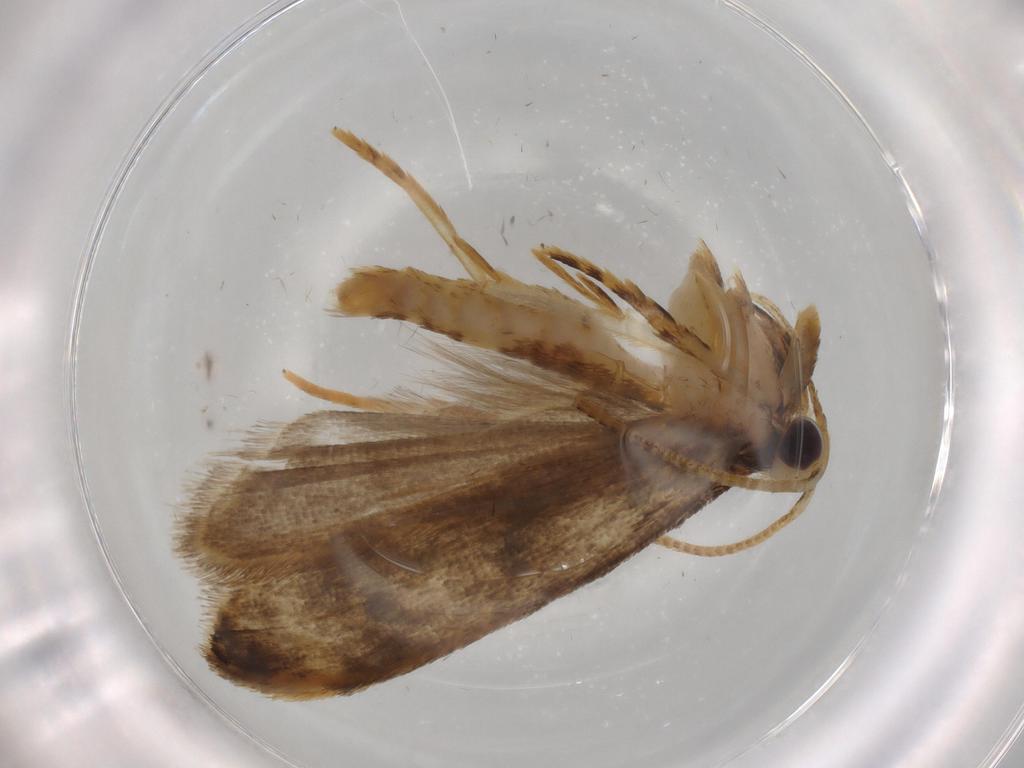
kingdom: Animalia
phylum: Arthropoda
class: Insecta
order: Lepidoptera
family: Autostichidae
